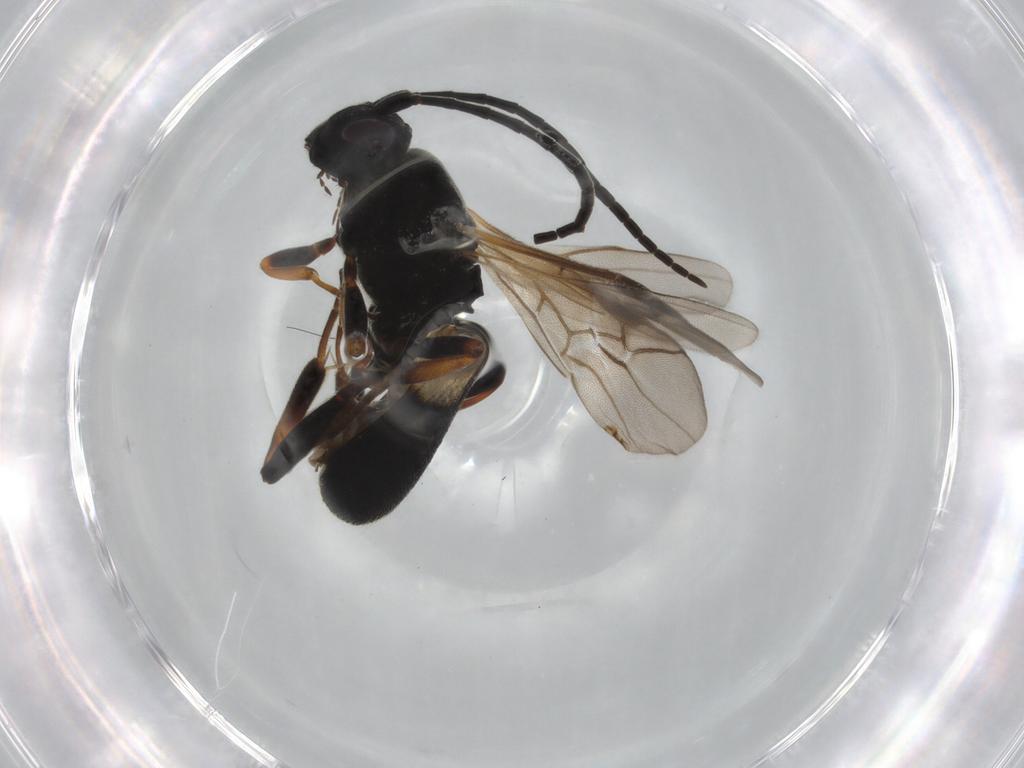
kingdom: Animalia
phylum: Arthropoda
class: Insecta
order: Hymenoptera
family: Braconidae
